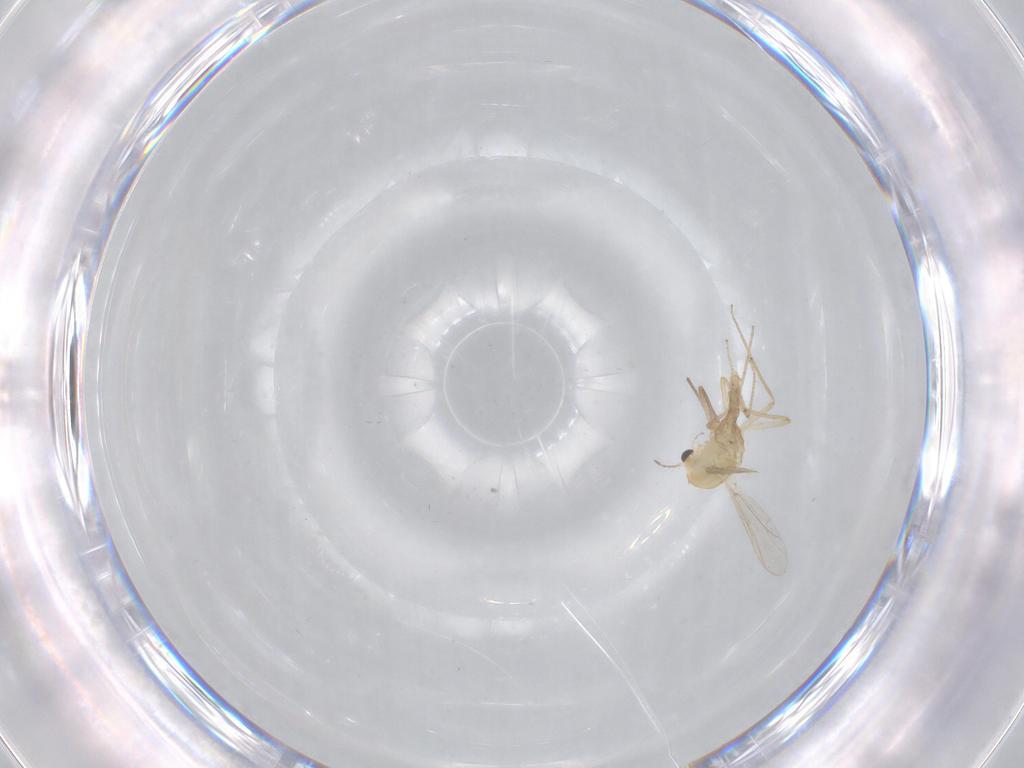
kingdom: Animalia
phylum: Arthropoda
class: Insecta
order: Diptera
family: Chironomidae
